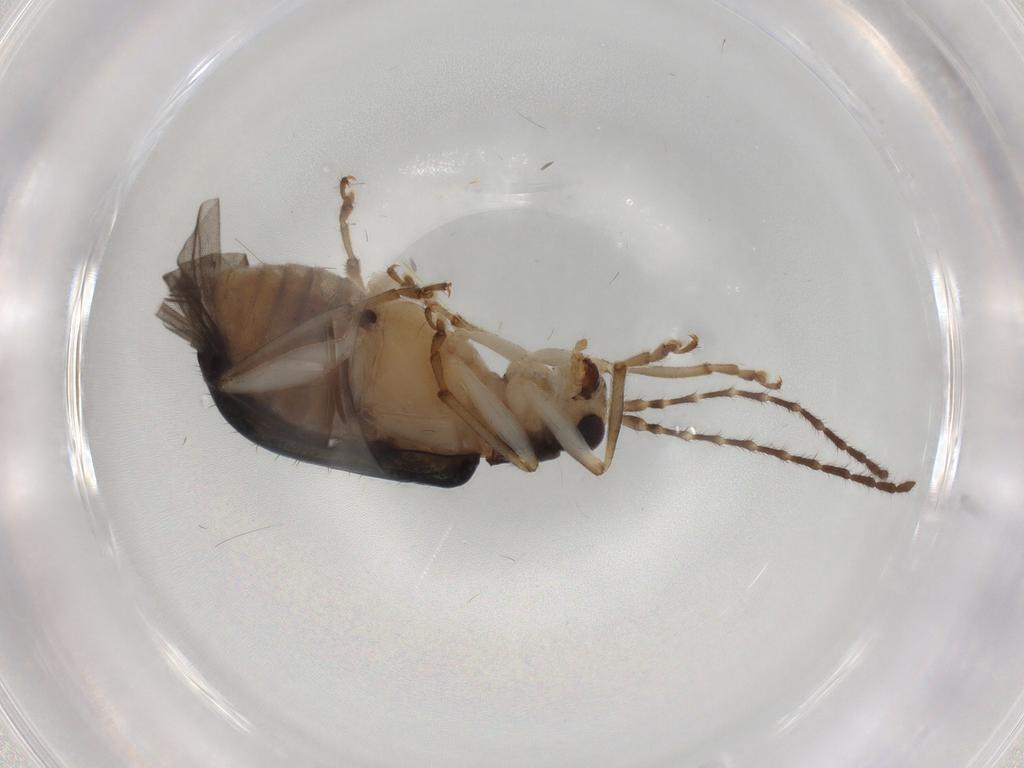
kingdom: Animalia
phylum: Arthropoda
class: Insecta
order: Coleoptera
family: Chrysomelidae
